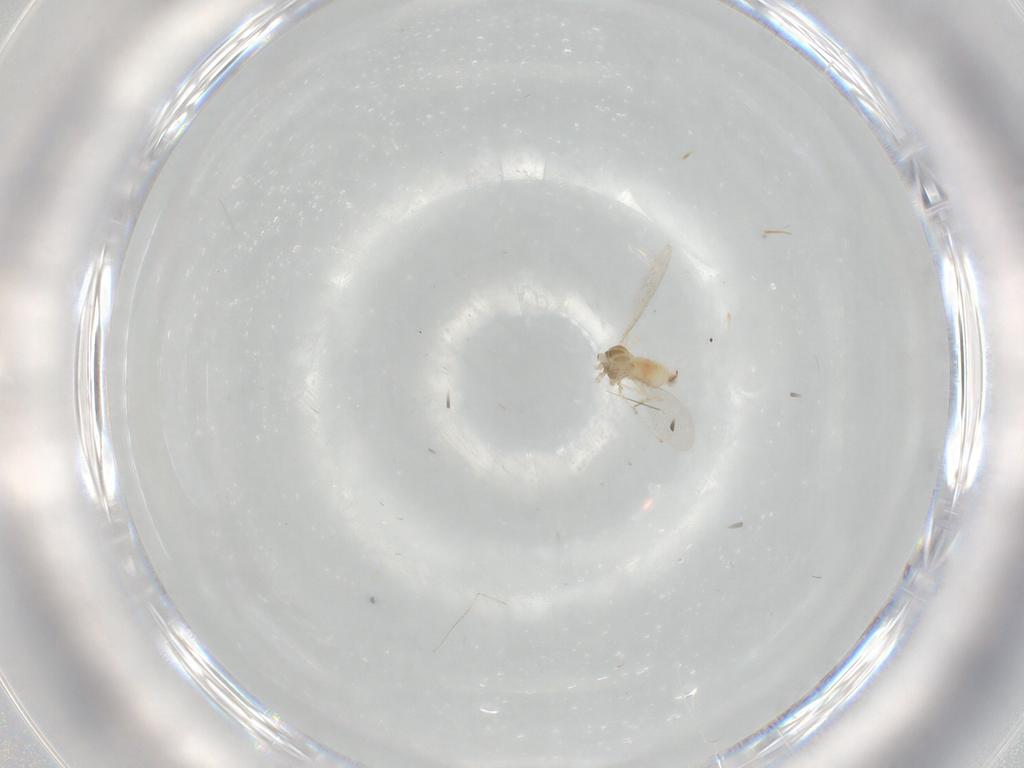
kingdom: Animalia
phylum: Arthropoda
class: Insecta
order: Diptera
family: Cecidomyiidae
